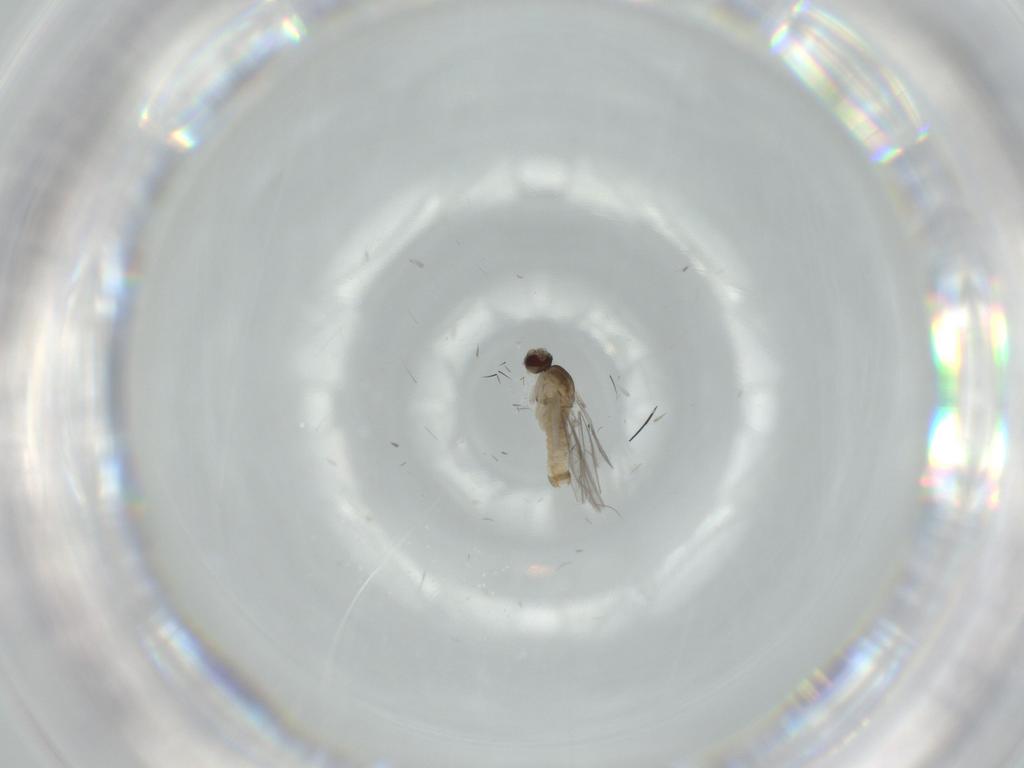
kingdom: Animalia
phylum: Arthropoda
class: Insecta
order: Diptera
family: Cecidomyiidae
